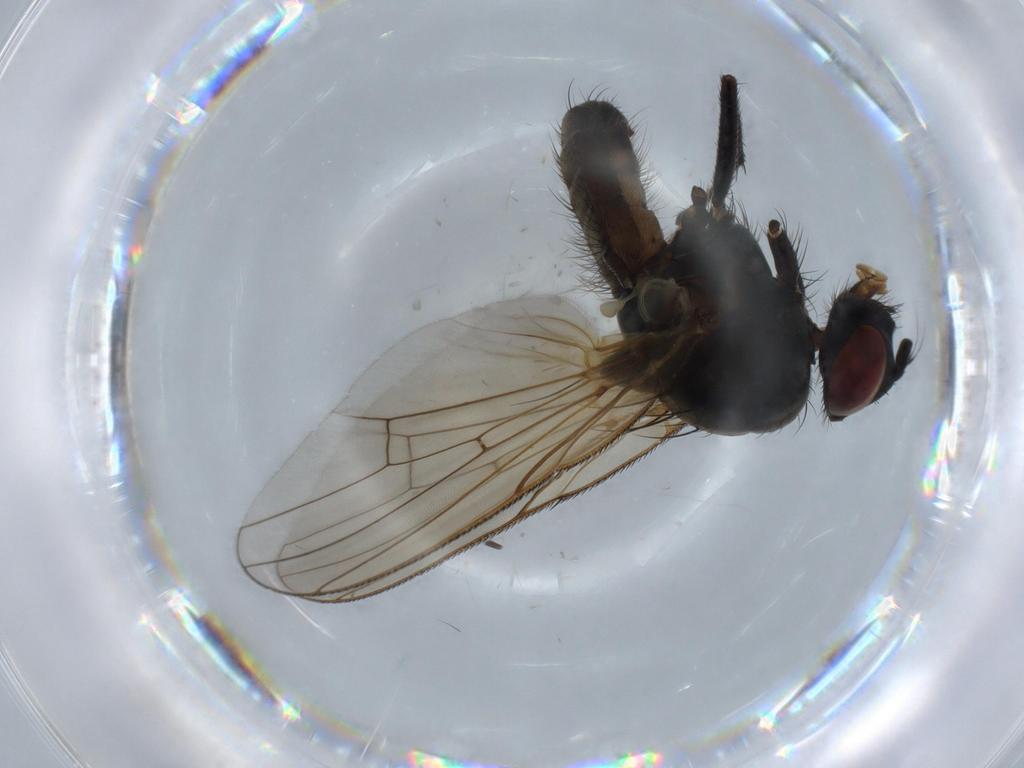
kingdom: Animalia
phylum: Arthropoda
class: Insecta
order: Diptera
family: Anthomyiidae
